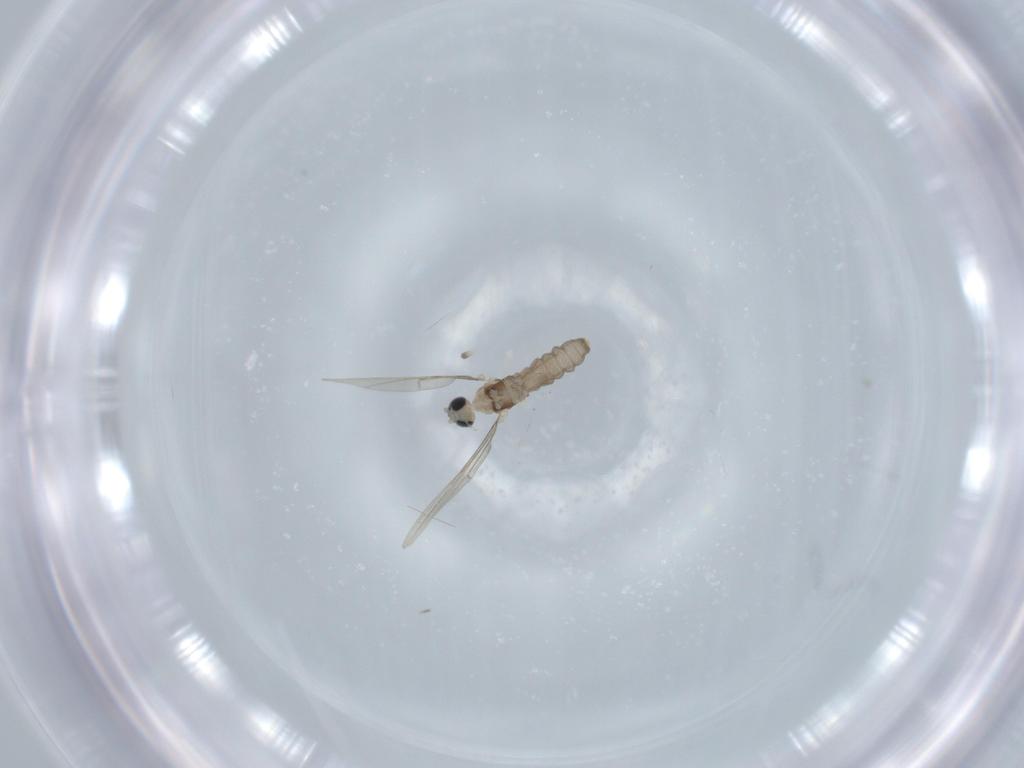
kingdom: Animalia
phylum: Arthropoda
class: Insecta
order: Diptera
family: Cecidomyiidae
